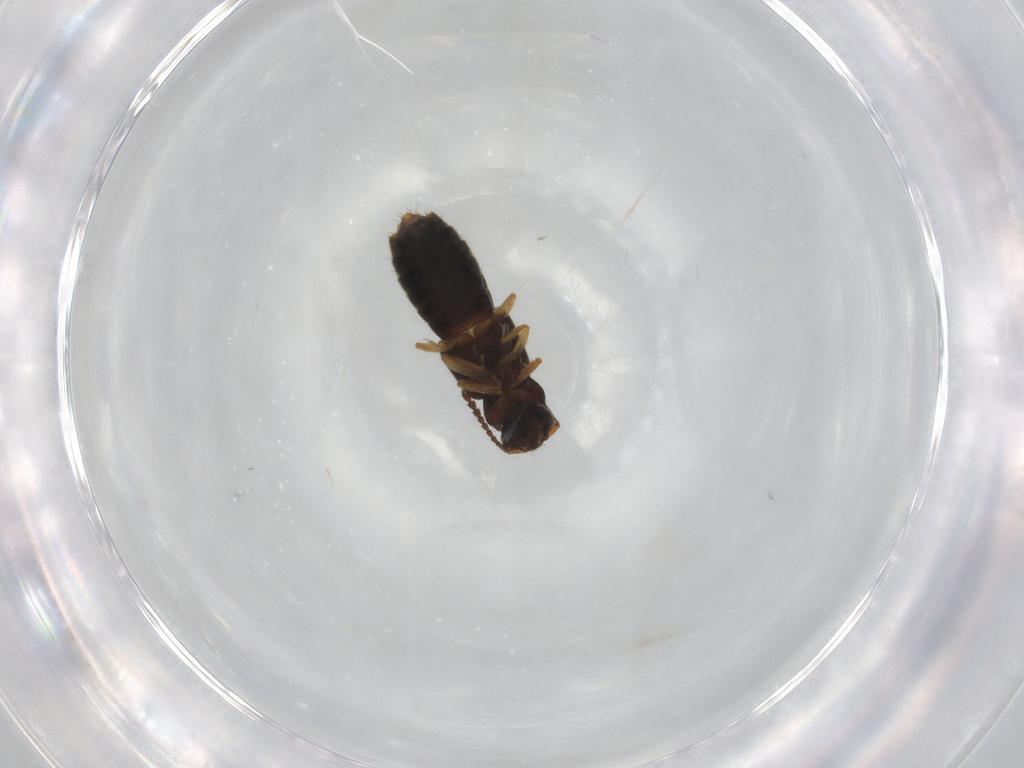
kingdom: Animalia
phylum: Arthropoda
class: Insecta
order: Coleoptera
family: Staphylinidae
